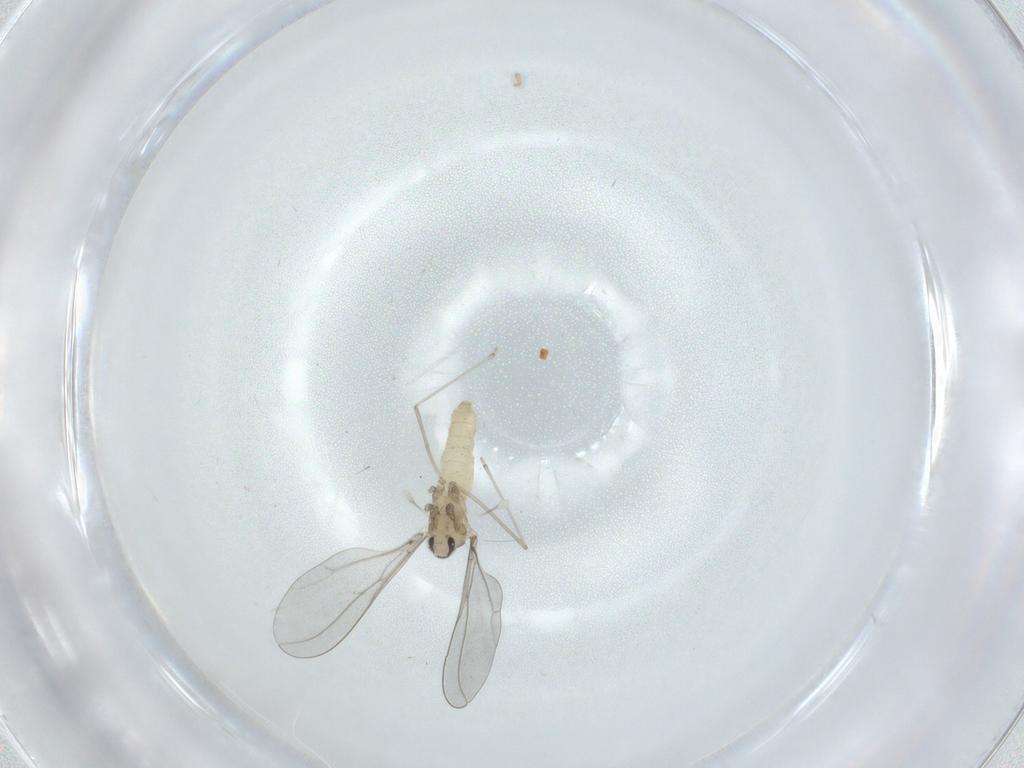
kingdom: Animalia
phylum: Arthropoda
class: Insecta
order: Diptera
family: Cecidomyiidae
